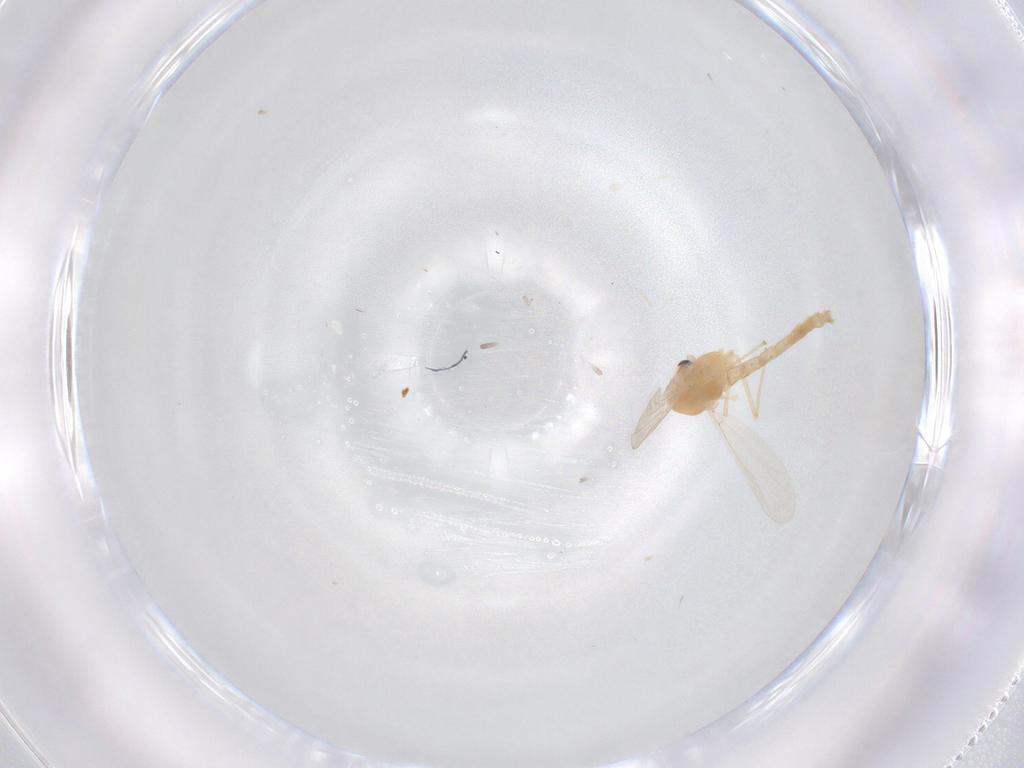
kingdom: Animalia
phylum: Arthropoda
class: Insecta
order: Diptera
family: Chironomidae
